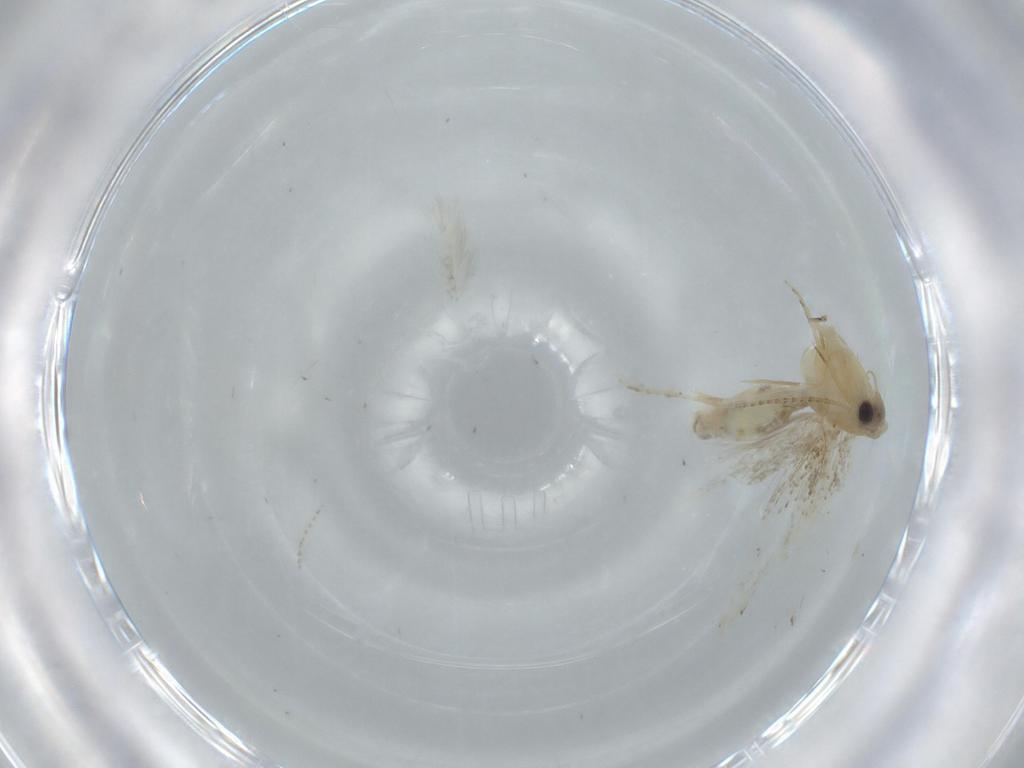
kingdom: Animalia
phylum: Arthropoda
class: Insecta
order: Lepidoptera
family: Bucculatricidae
